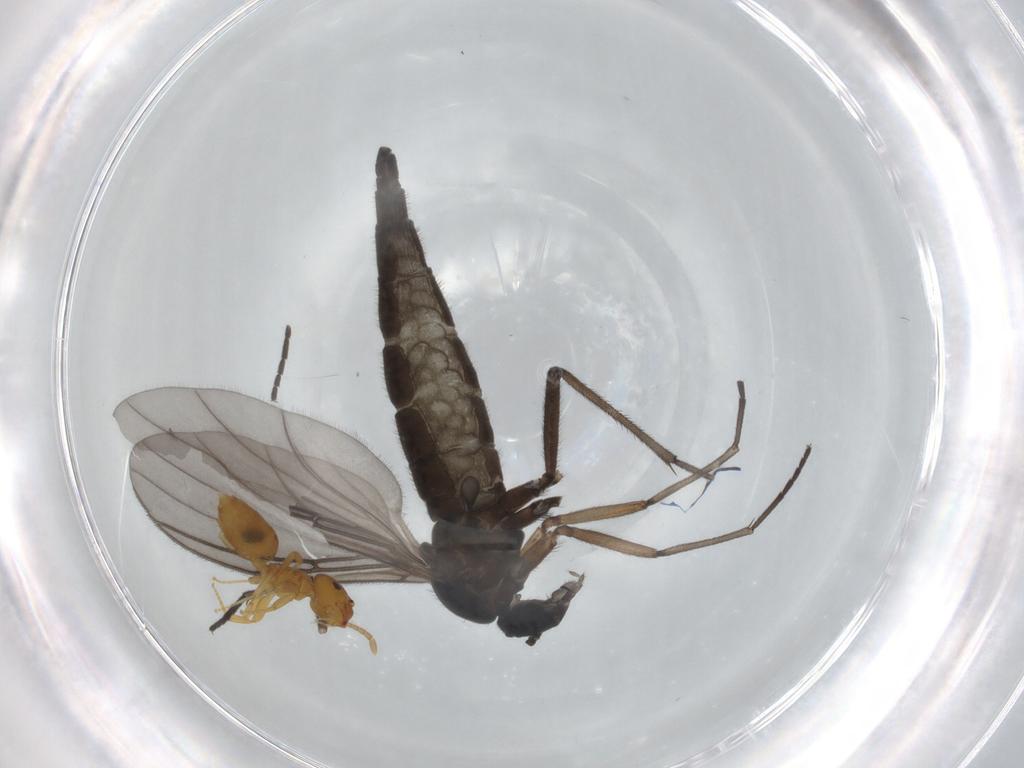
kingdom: Animalia
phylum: Arthropoda
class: Insecta
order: Diptera
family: Sciaridae
